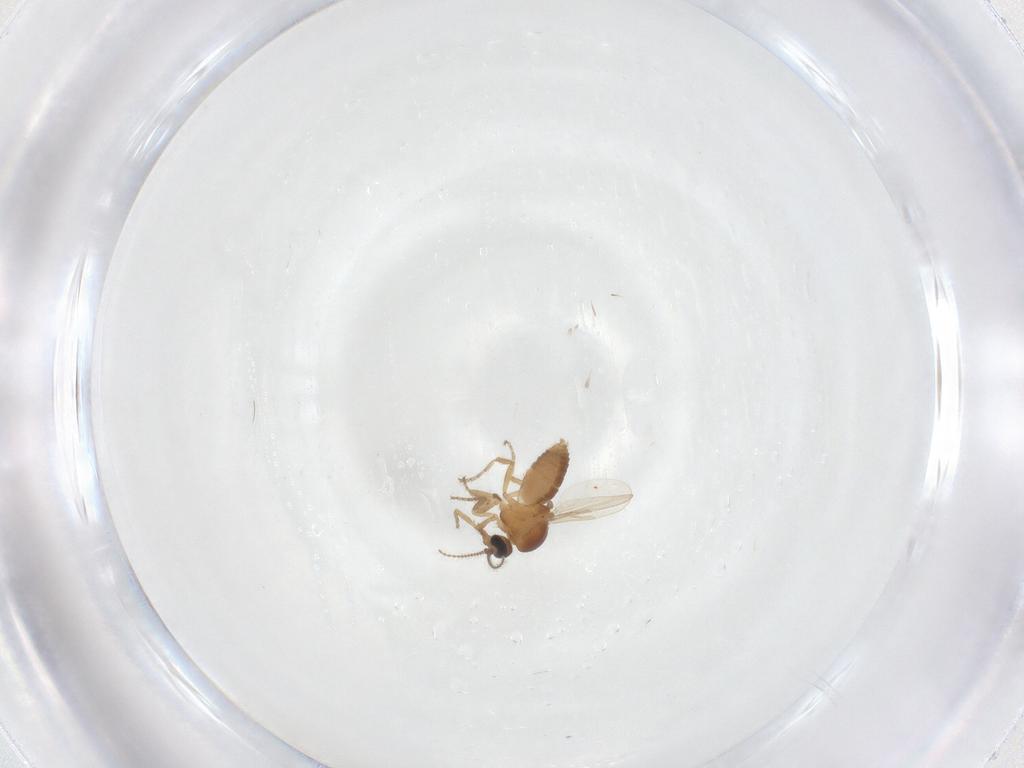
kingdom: Animalia
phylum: Arthropoda
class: Insecta
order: Diptera
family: Ceratopogonidae
